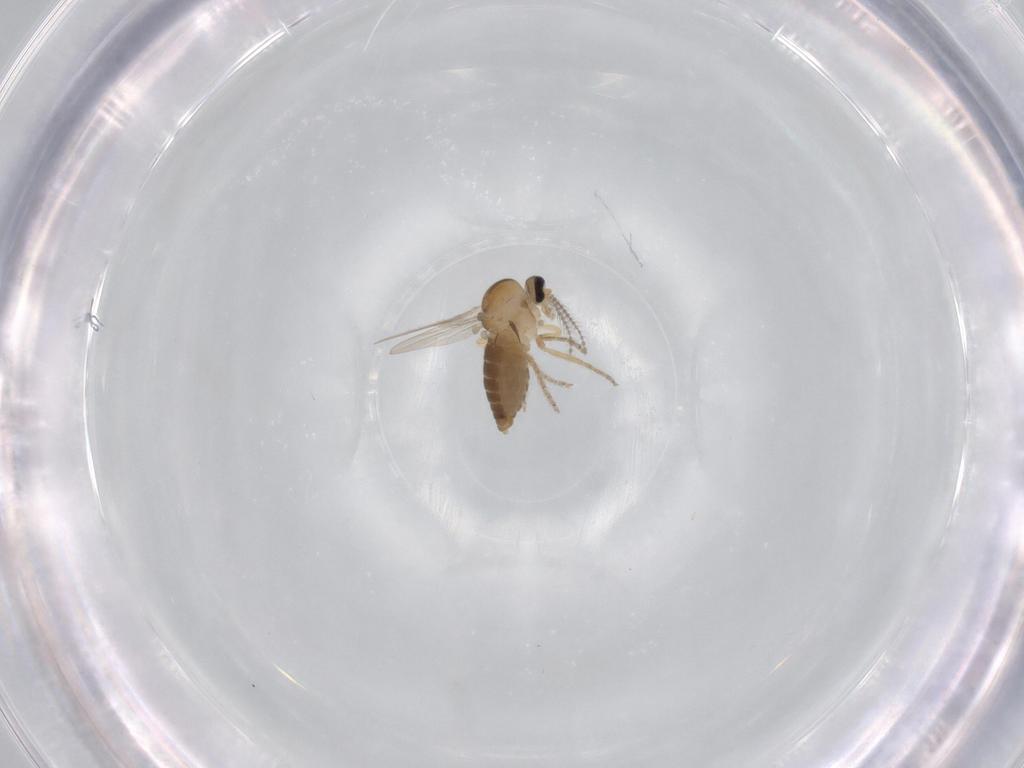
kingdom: Animalia
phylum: Arthropoda
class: Insecta
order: Diptera
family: Ceratopogonidae
